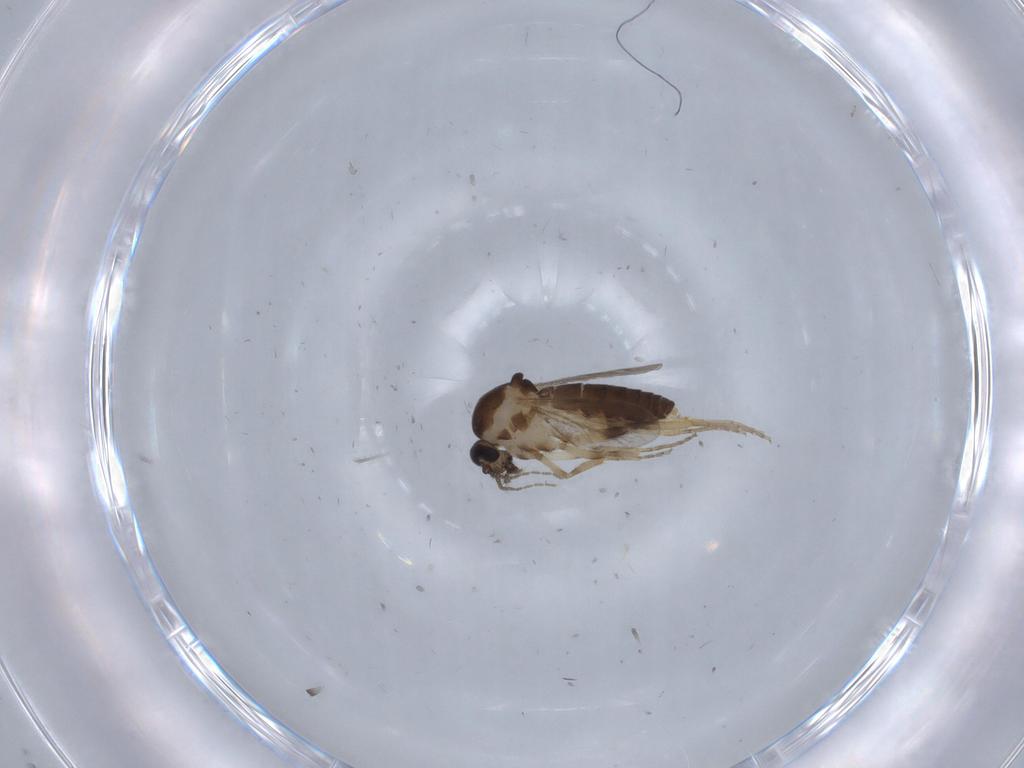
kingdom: Animalia
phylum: Arthropoda
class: Insecta
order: Diptera
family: Ceratopogonidae
